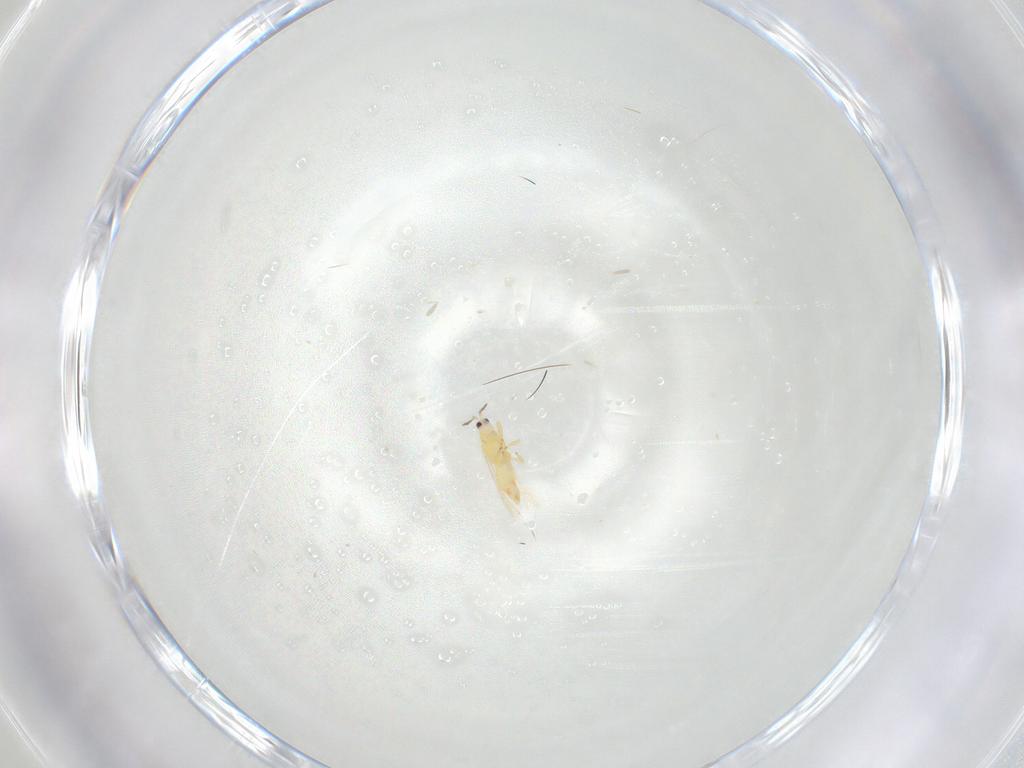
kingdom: Animalia
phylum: Arthropoda
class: Insecta
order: Thysanoptera
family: Melanthripidae
